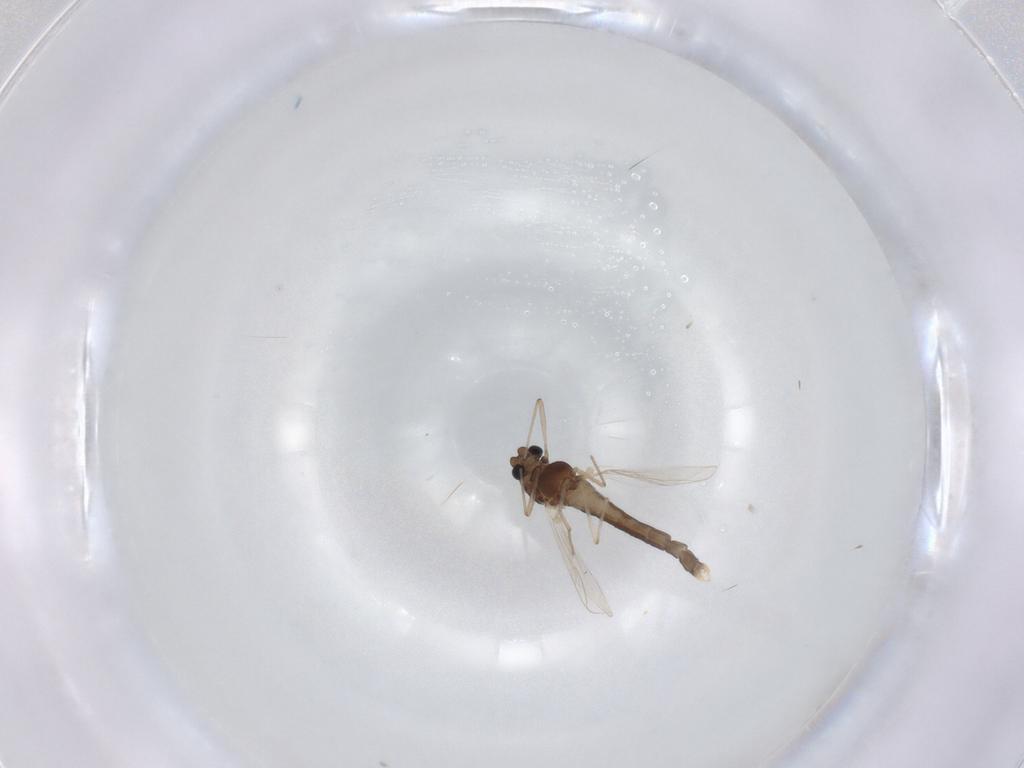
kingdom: Animalia
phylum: Arthropoda
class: Insecta
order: Diptera
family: Chironomidae
